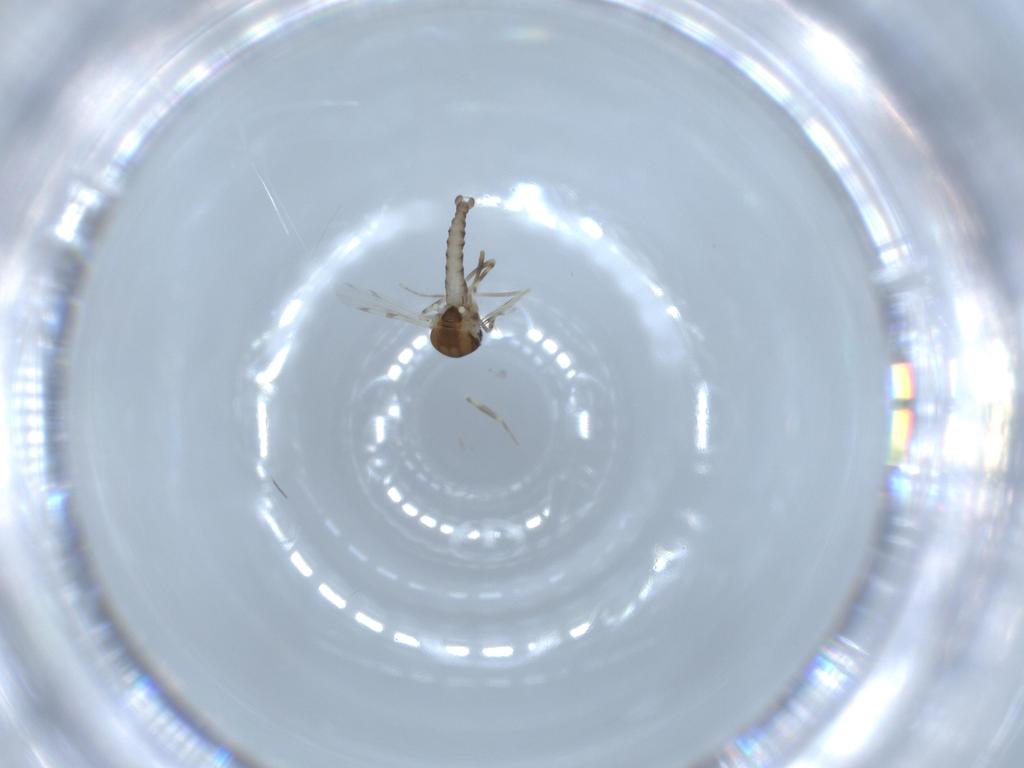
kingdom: Animalia
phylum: Arthropoda
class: Insecta
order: Diptera
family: Ceratopogonidae
